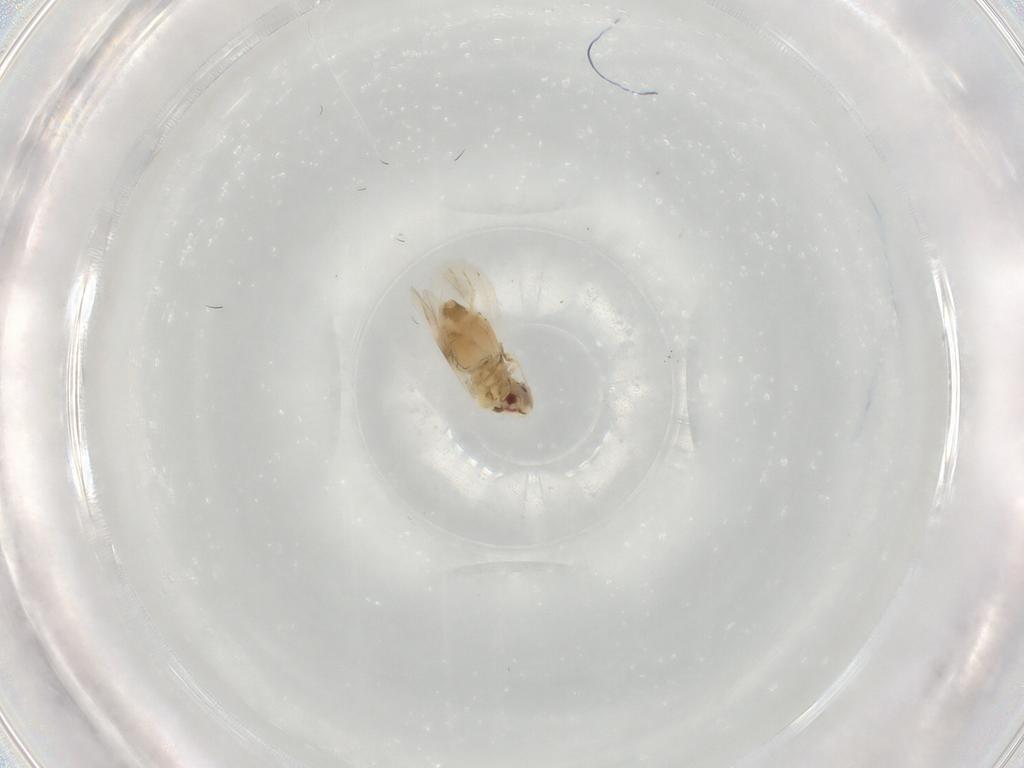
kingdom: Animalia
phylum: Arthropoda
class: Insecta
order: Hemiptera
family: Aleyrodidae
